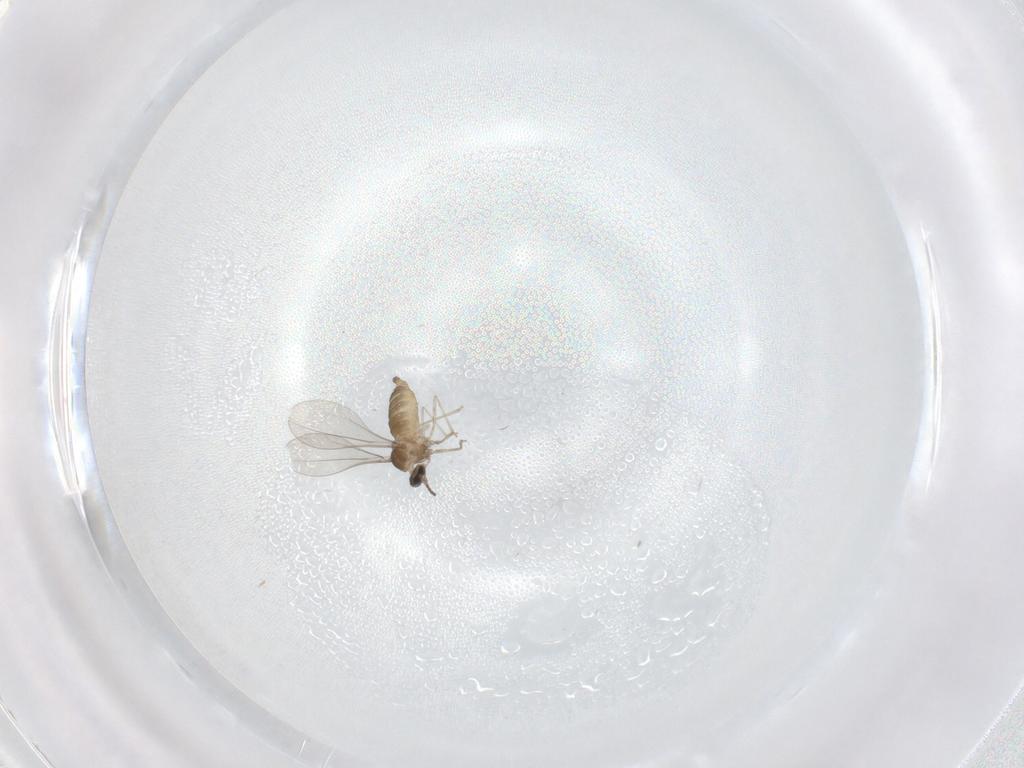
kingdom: Animalia
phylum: Arthropoda
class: Insecta
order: Diptera
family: Cecidomyiidae
